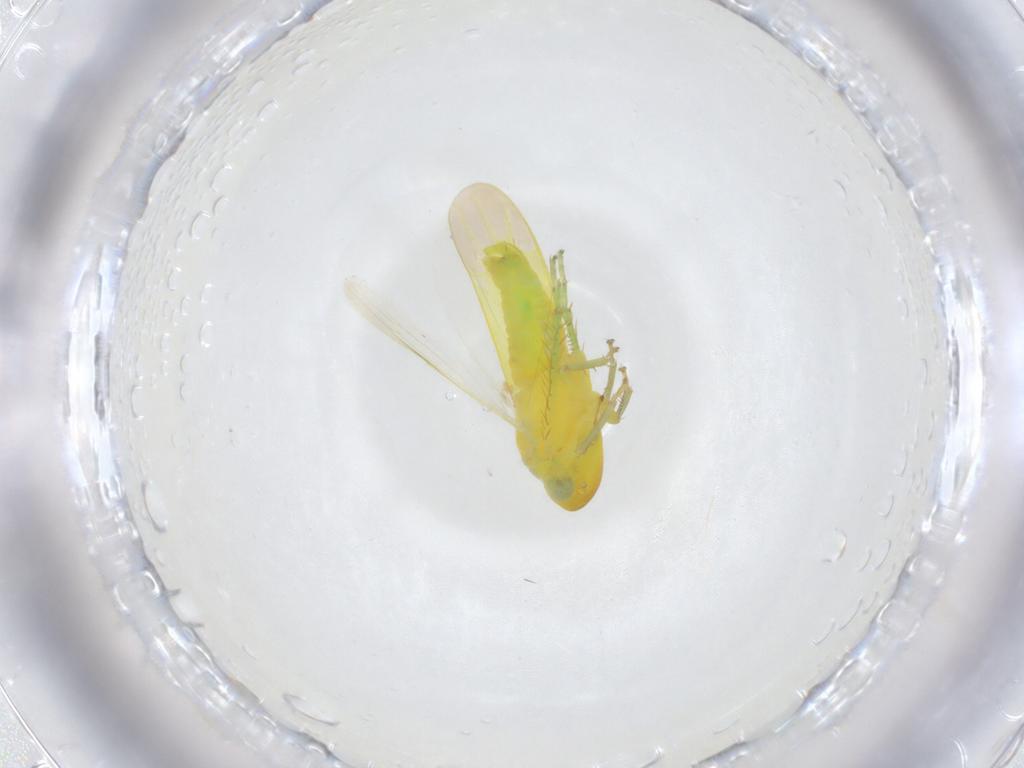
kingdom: Animalia
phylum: Arthropoda
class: Insecta
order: Hemiptera
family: Cicadellidae
